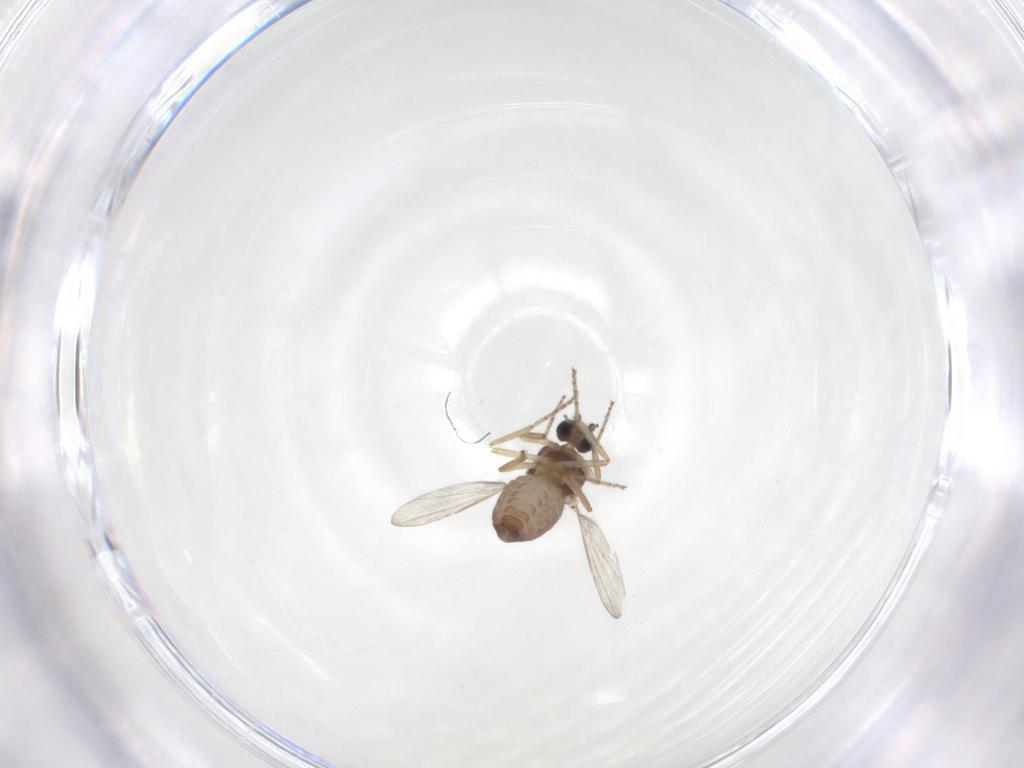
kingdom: Animalia
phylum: Arthropoda
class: Insecta
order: Diptera
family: Ceratopogonidae
